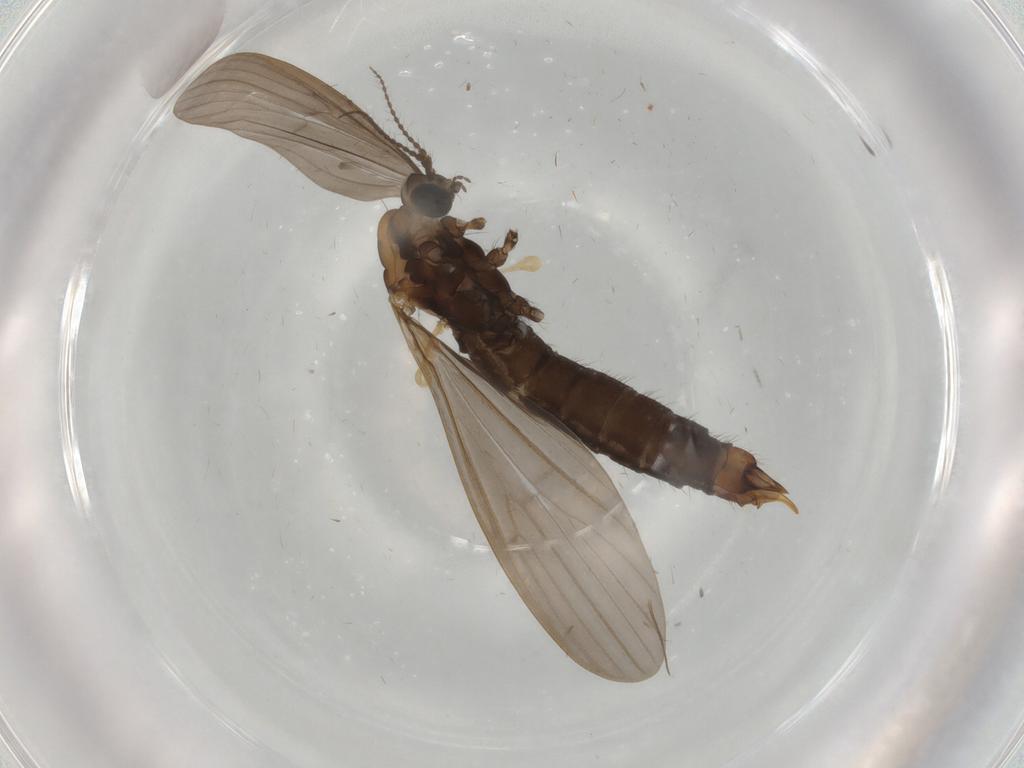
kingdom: Animalia
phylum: Arthropoda
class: Insecta
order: Diptera
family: Limoniidae
